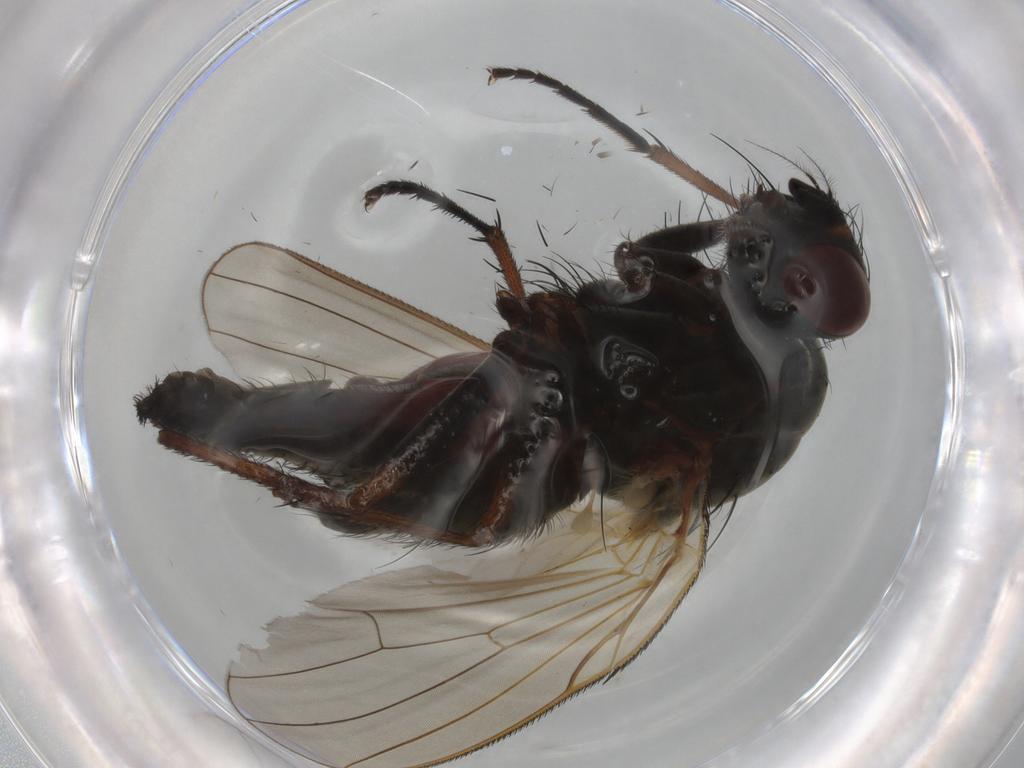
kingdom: Animalia
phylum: Arthropoda
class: Insecta
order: Diptera
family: Anthomyiidae
